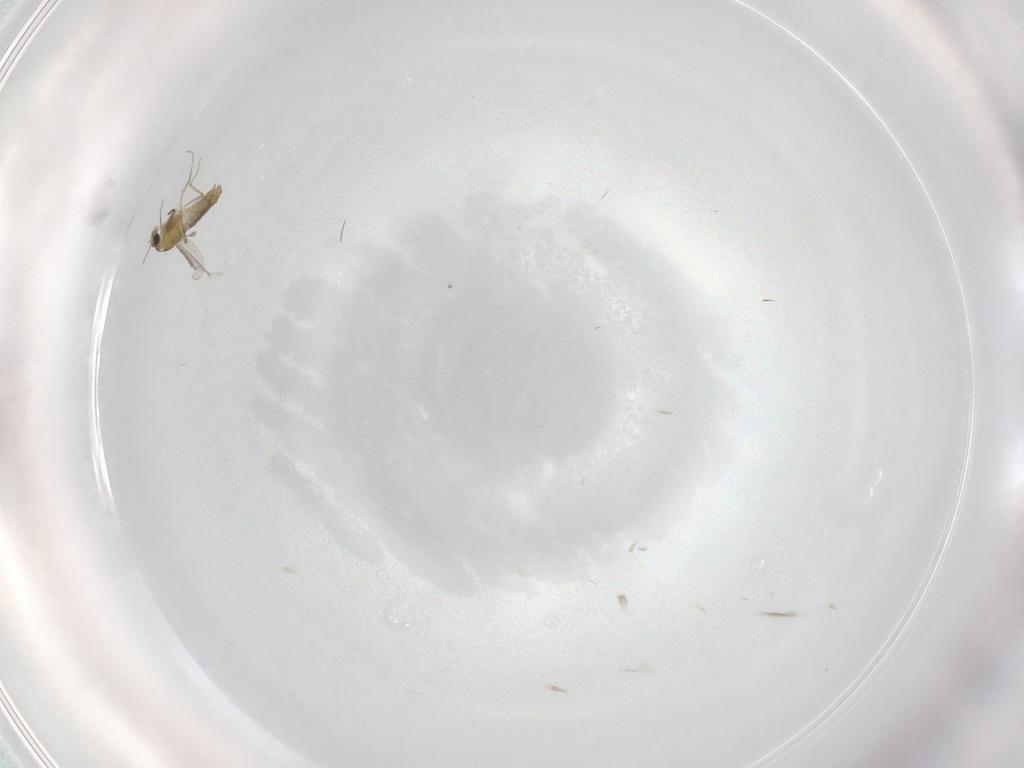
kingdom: Animalia
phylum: Arthropoda
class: Insecta
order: Diptera
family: Chironomidae
